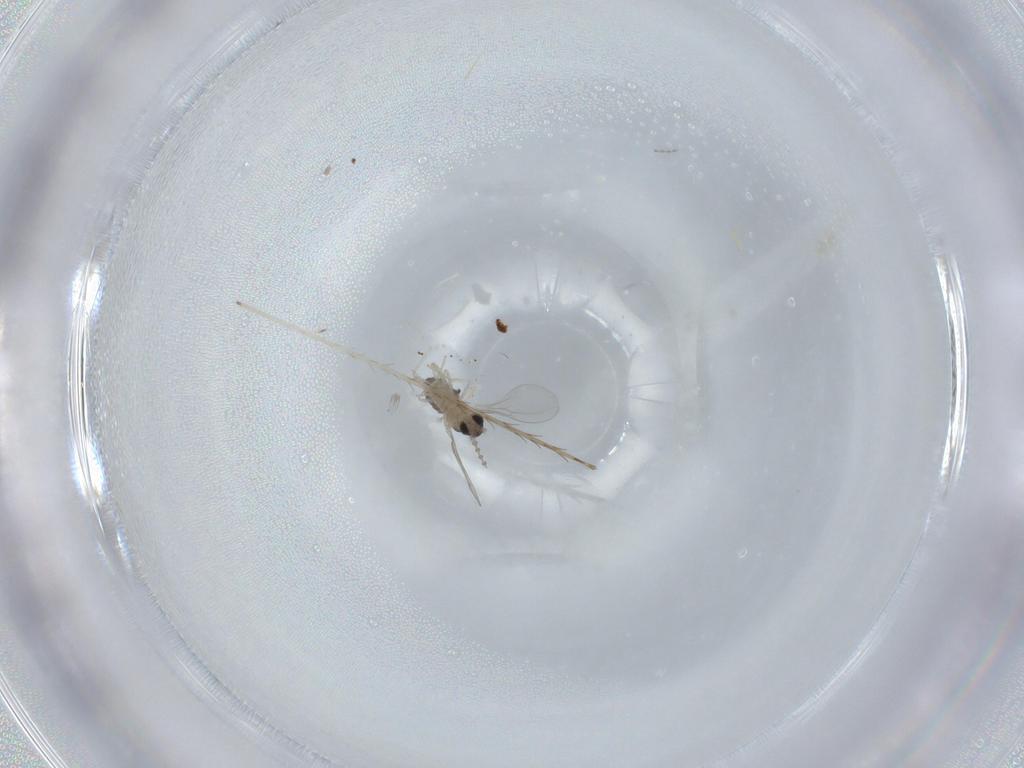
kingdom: Animalia
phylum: Arthropoda
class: Insecta
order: Diptera
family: Cecidomyiidae
